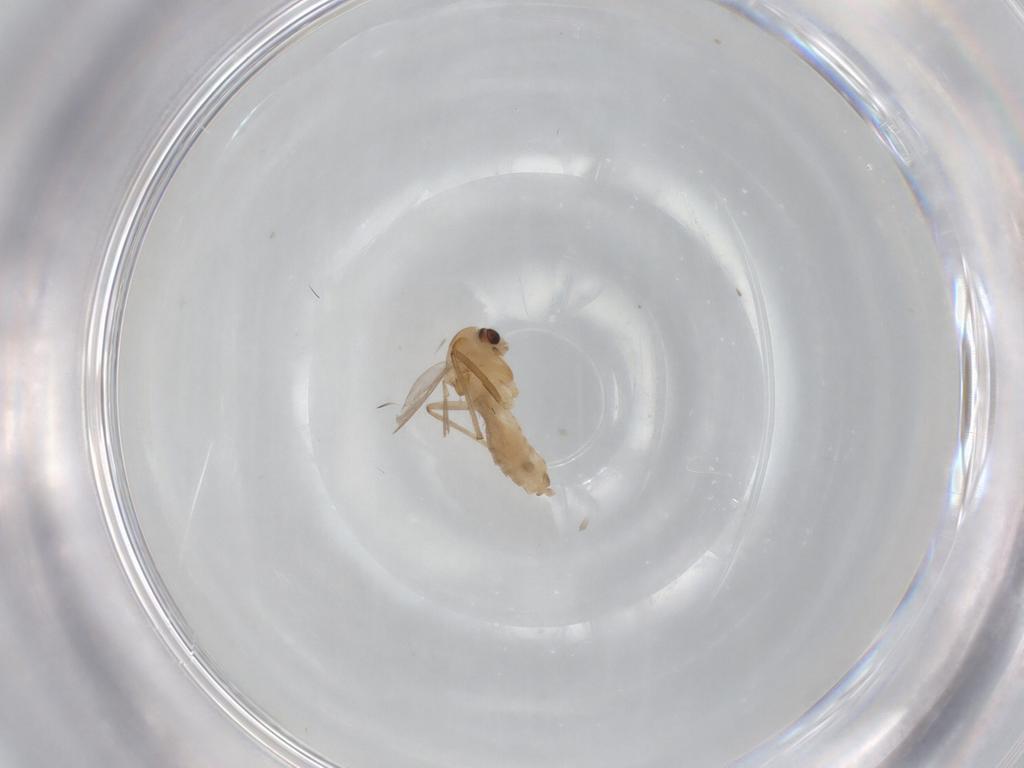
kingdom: Animalia
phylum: Arthropoda
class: Insecta
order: Diptera
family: Chironomidae
